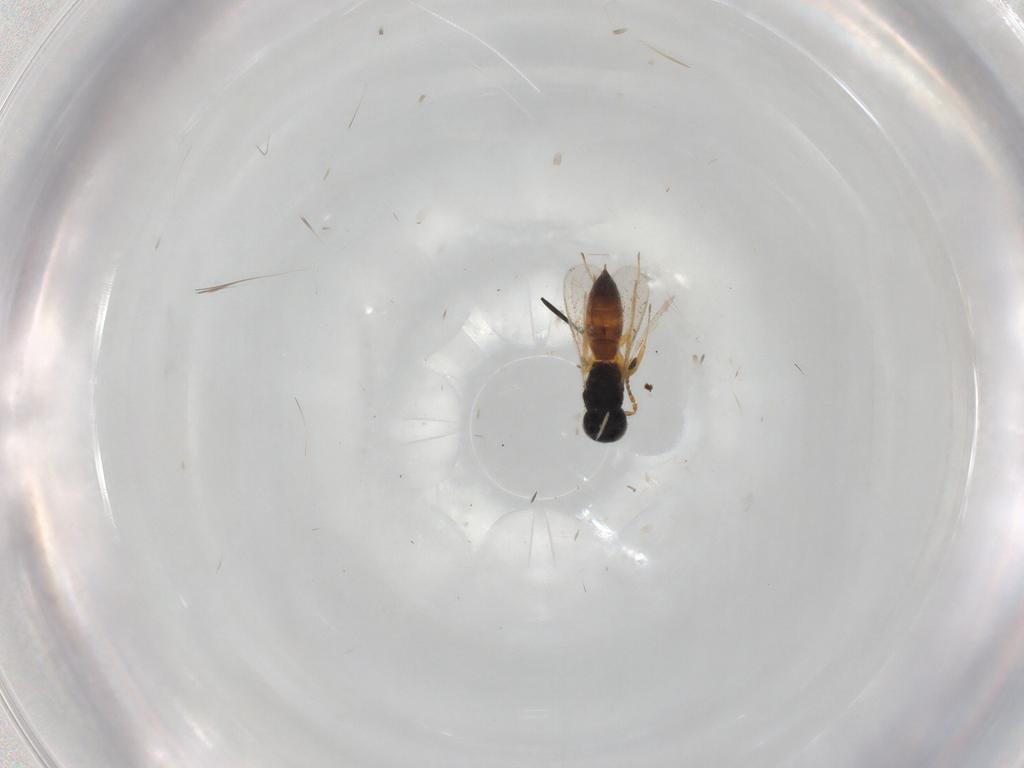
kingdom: Animalia
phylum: Arthropoda
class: Insecta
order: Hymenoptera
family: Scelionidae
